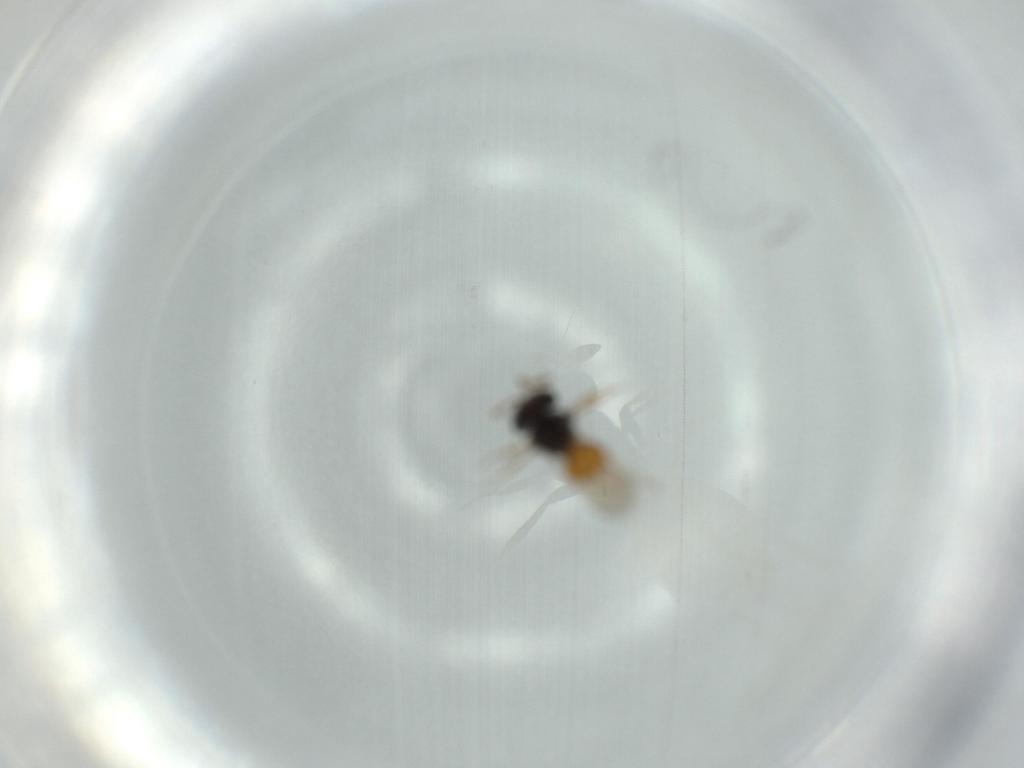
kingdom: Animalia
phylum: Arthropoda
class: Insecta
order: Hymenoptera
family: Scelionidae
